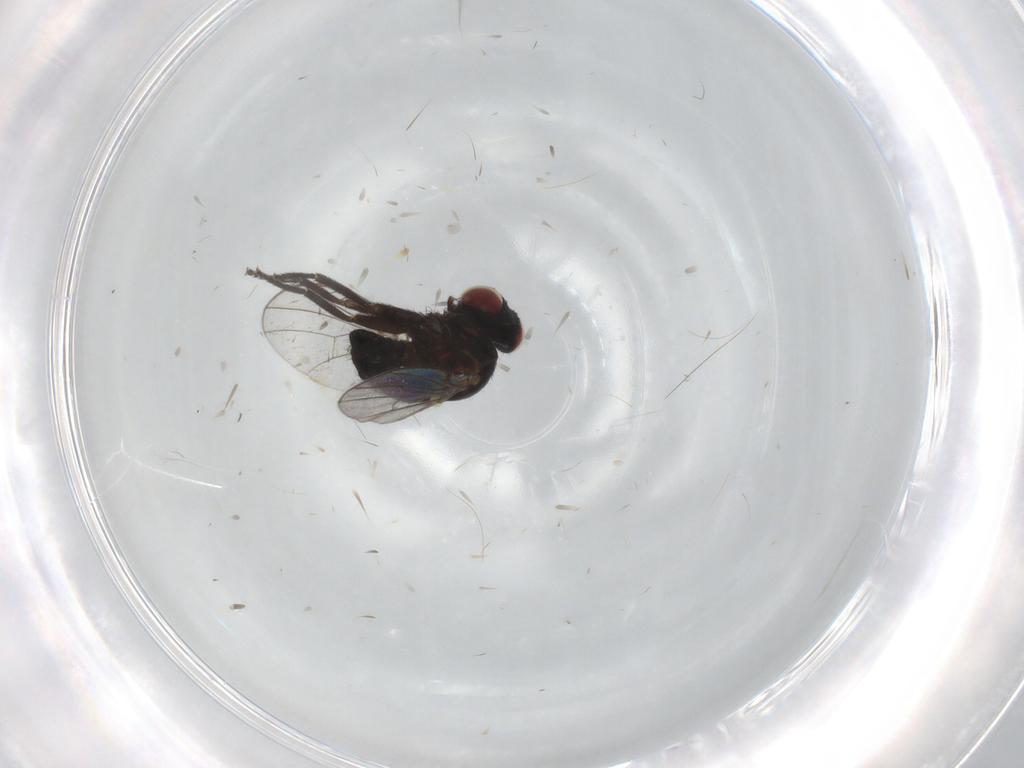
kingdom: Animalia
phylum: Arthropoda
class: Insecta
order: Diptera
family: Agromyzidae
